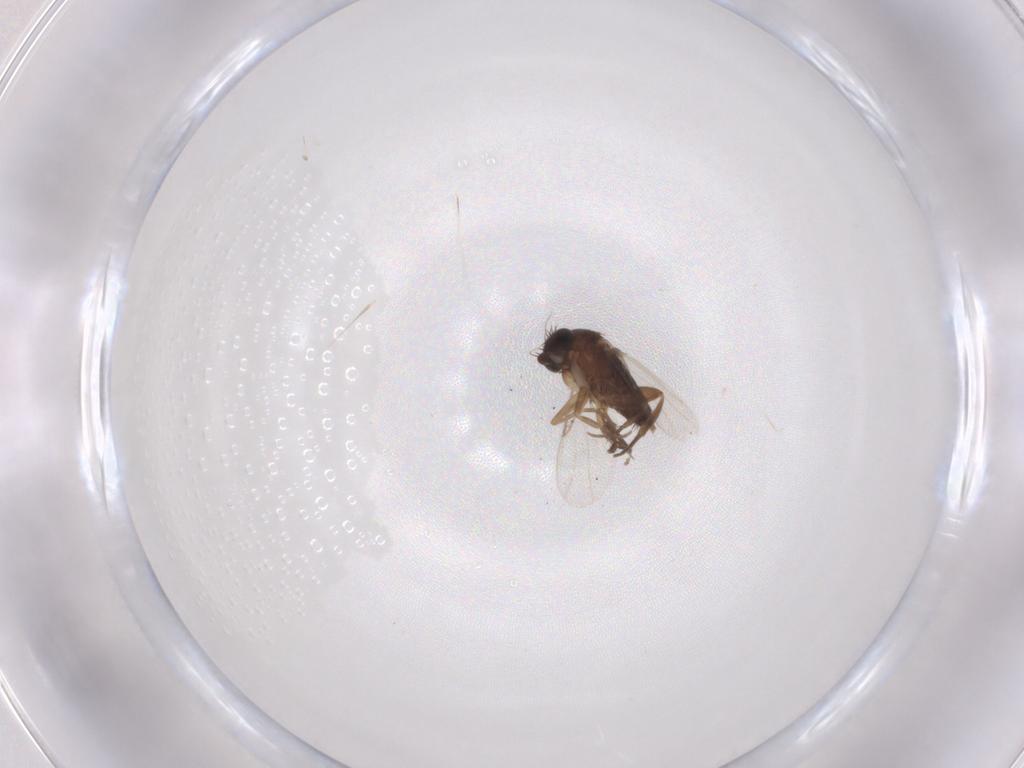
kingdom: Animalia
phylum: Arthropoda
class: Insecta
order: Diptera
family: Phoridae
